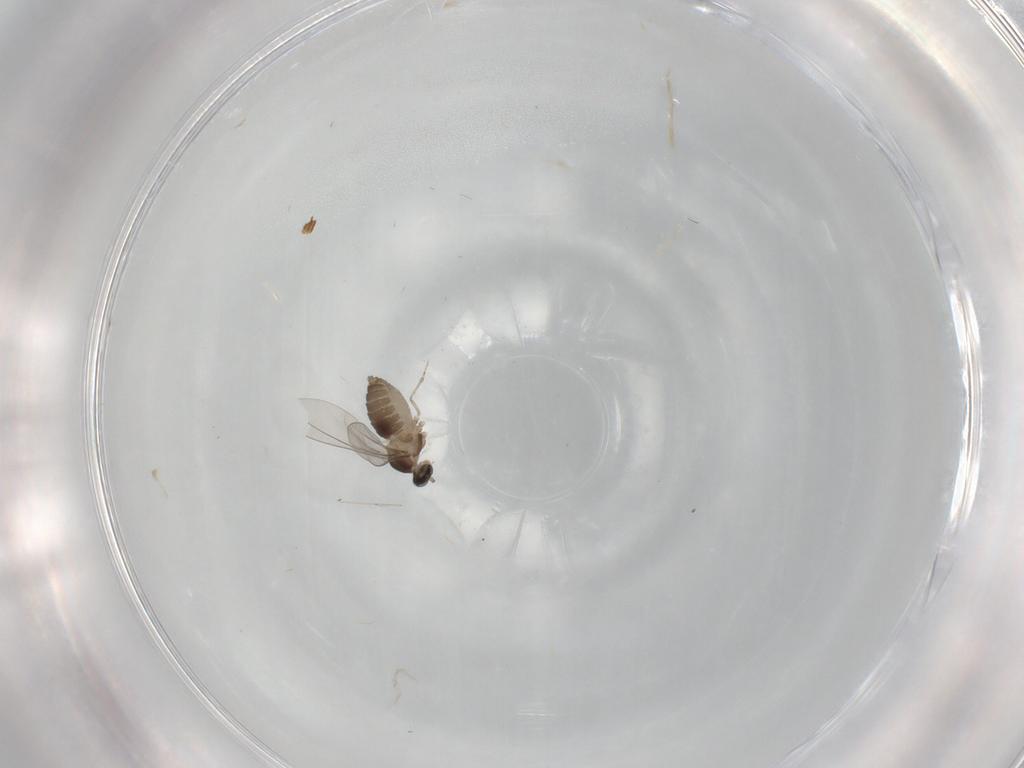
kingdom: Animalia
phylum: Arthropoda
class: Insecta
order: Diptera
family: Cecidomyiidae
